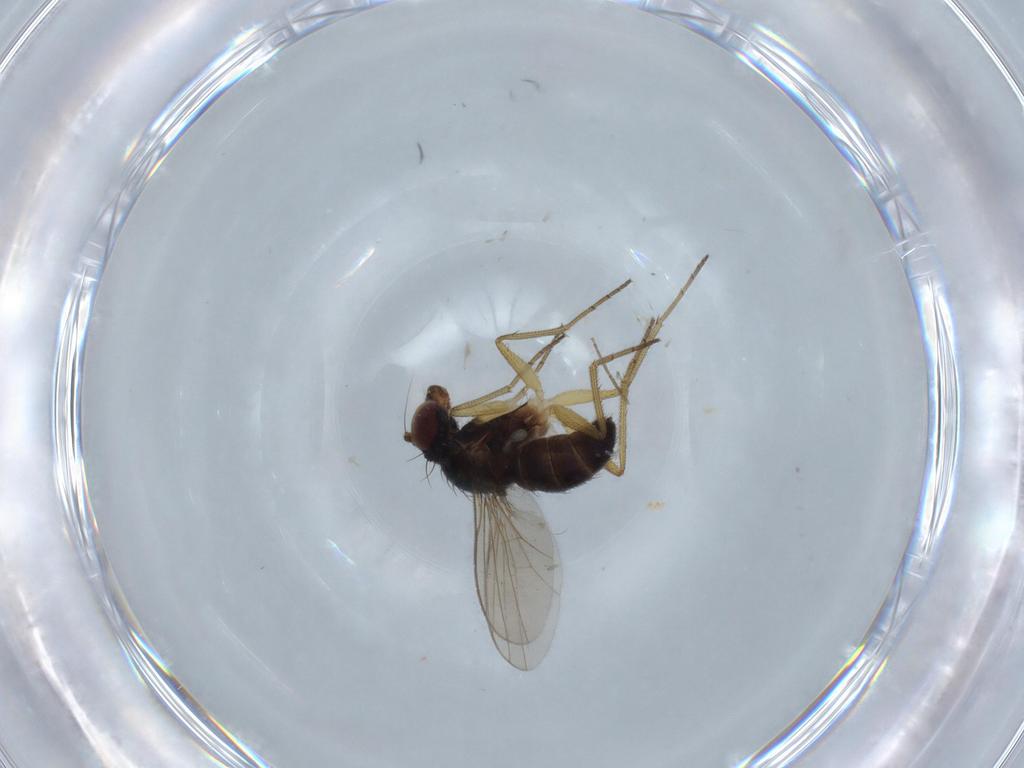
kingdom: Animalia
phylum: Arthropoda
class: Insecta
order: Diptera
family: Dolichopodidae
